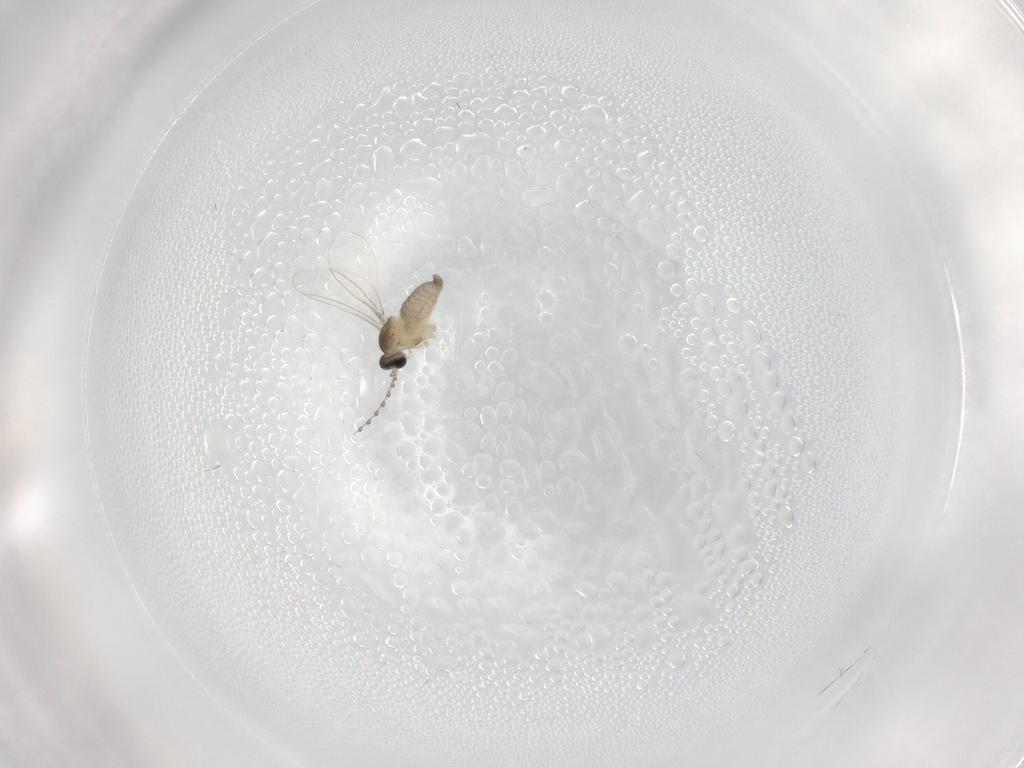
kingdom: Animalia
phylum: Arthropoda
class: Insecta
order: Diptera
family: Cecidomyiidae
